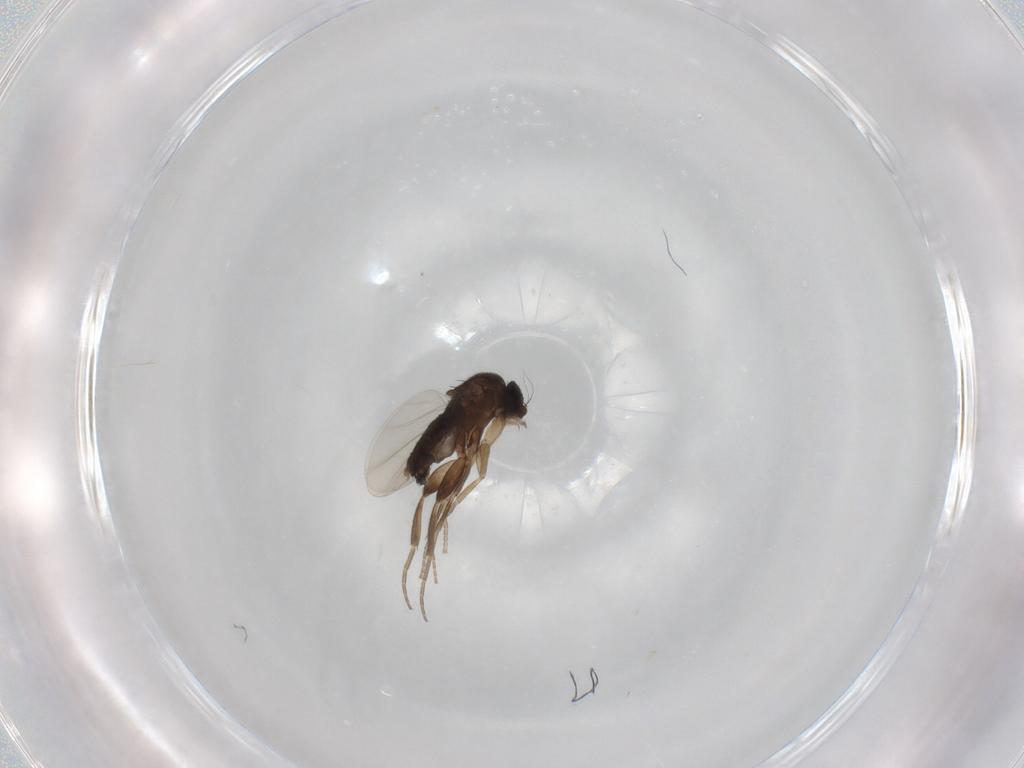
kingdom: Animalia
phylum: Arthropoda
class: Insecta
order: Diptera
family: Phoridae
